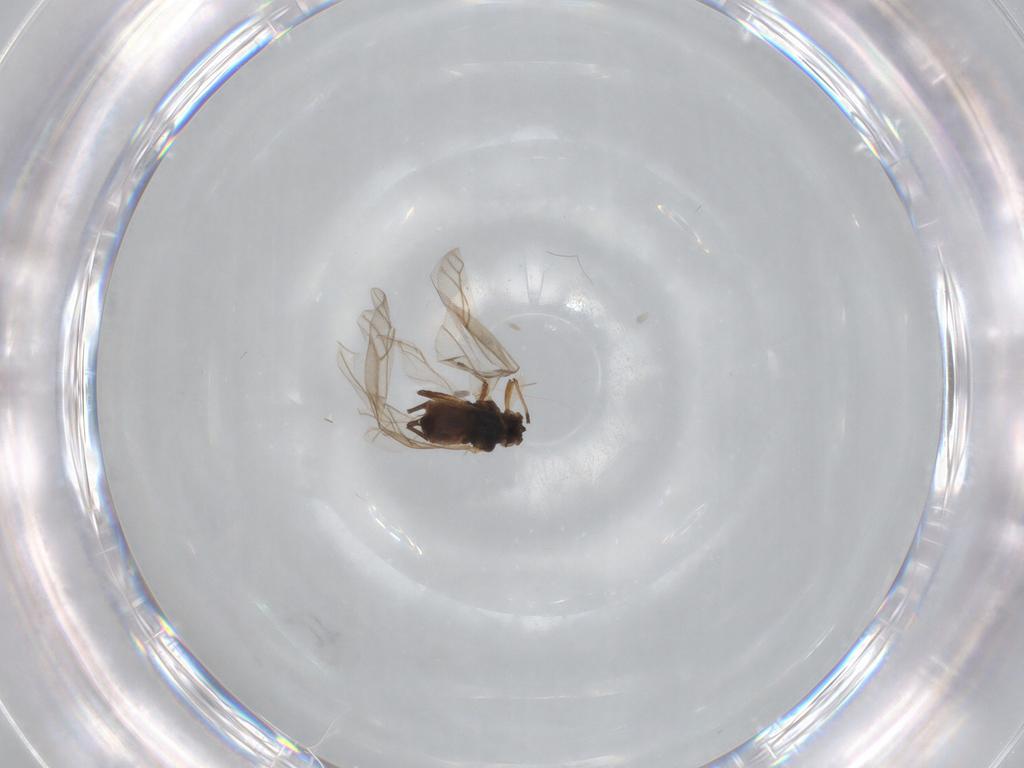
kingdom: Animalia
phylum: Arthropoda
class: Insecta
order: Hemiptera
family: Aphididae
